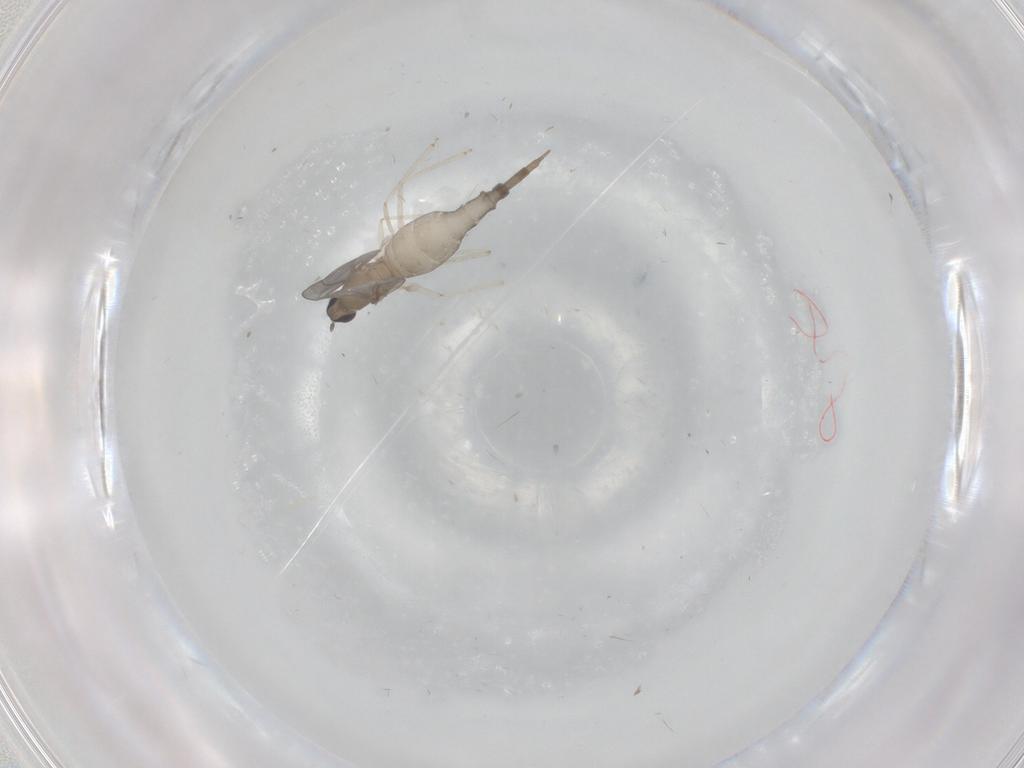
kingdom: Animalia
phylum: Arthropoda
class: Insecta
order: Diptera
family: Cecidomyiidae
